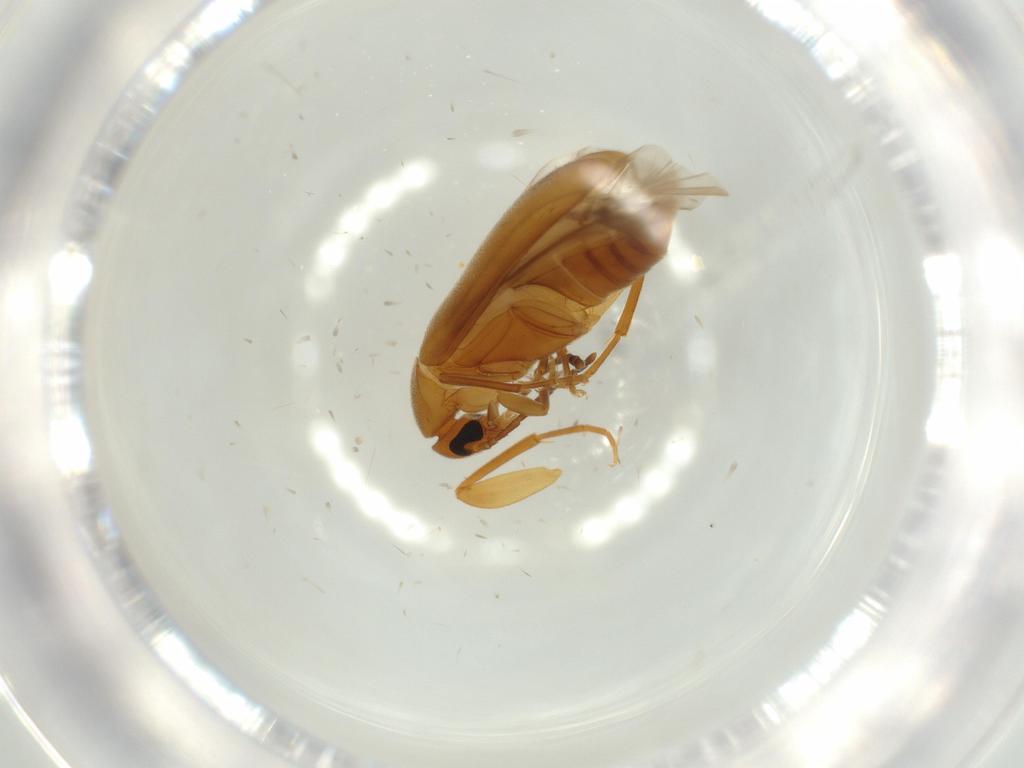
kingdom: Animalia
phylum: Arthropoda
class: Insecta
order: Coleoptera
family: Scraptiidae
